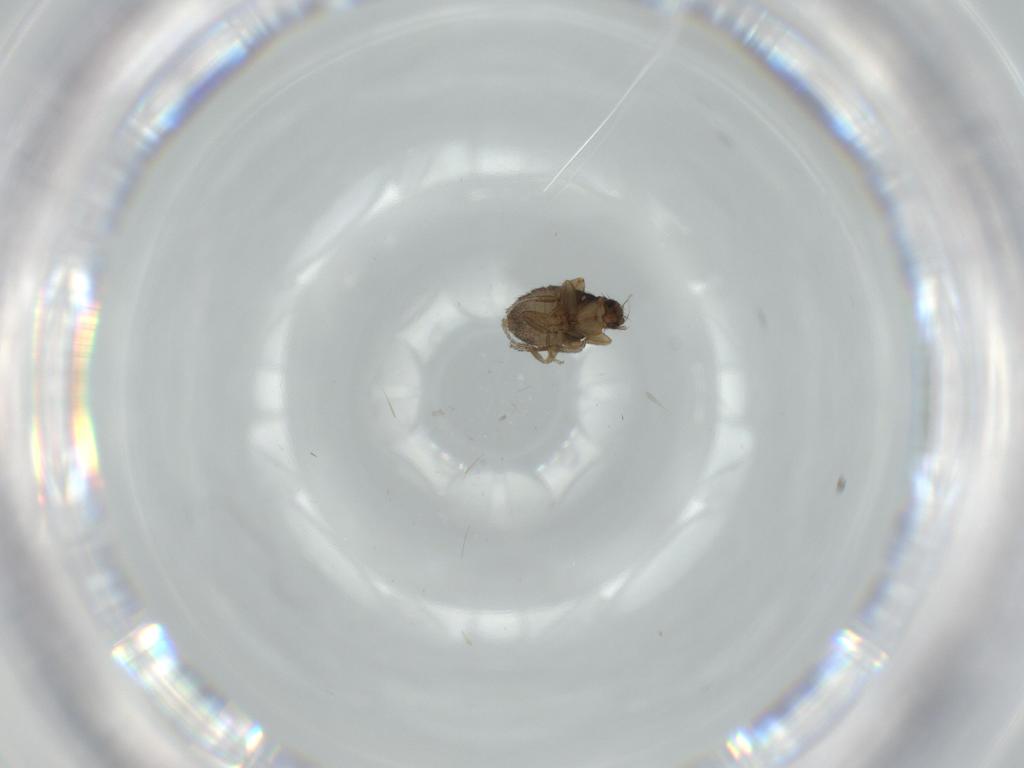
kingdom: Animalia
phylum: Arthropoda
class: Insecta
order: Diptera
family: Phoridae
